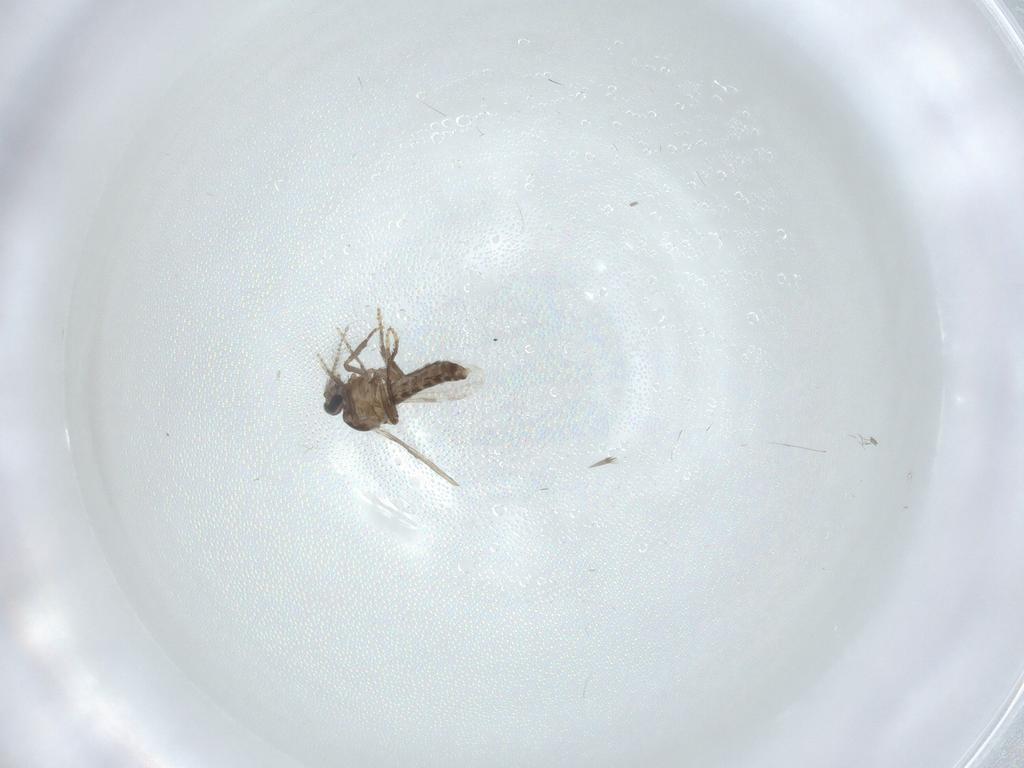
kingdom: Animalia
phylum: Arthropoda
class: Insecta
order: Diptera
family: Ceratopogonidae
